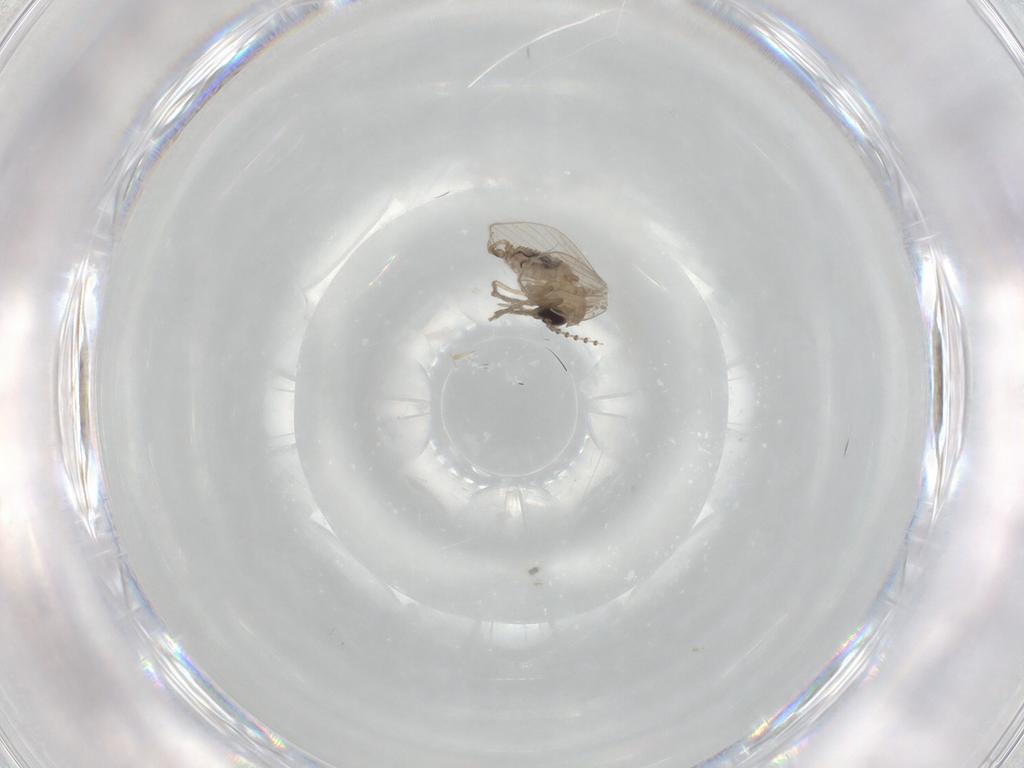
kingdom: Animalia
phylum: Arthropoda
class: Insecta
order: Diptera
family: Psychodidae
